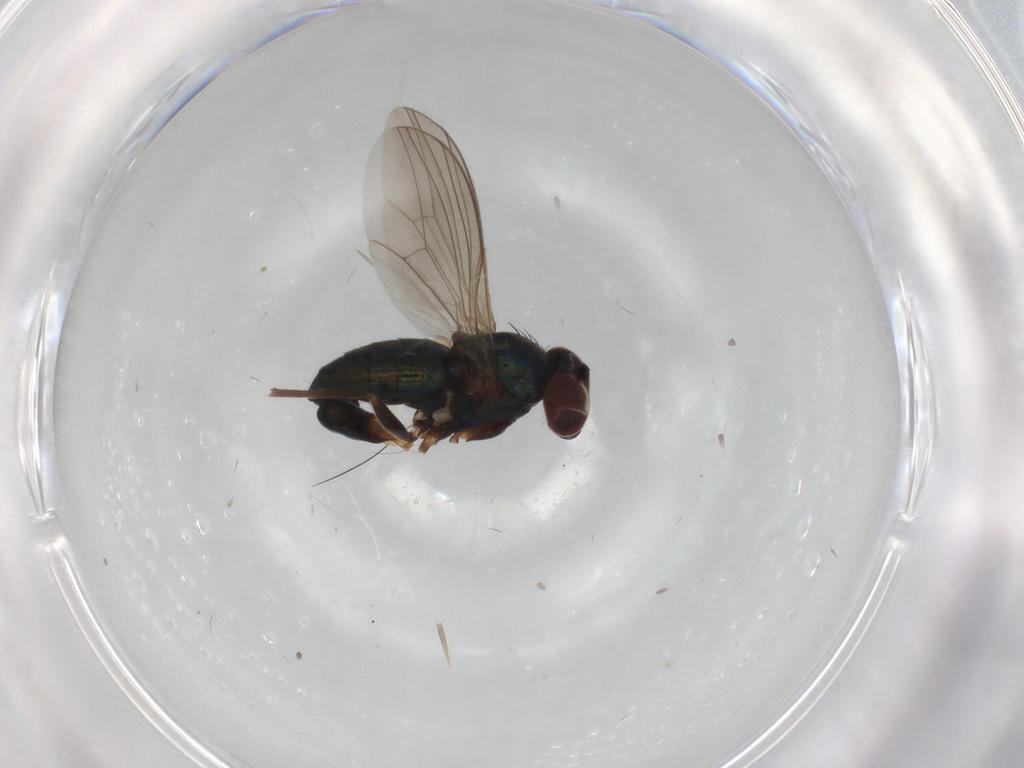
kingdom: Animalia
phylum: Arthropoda
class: Insecta
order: Diptera
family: Dolichopodidae
